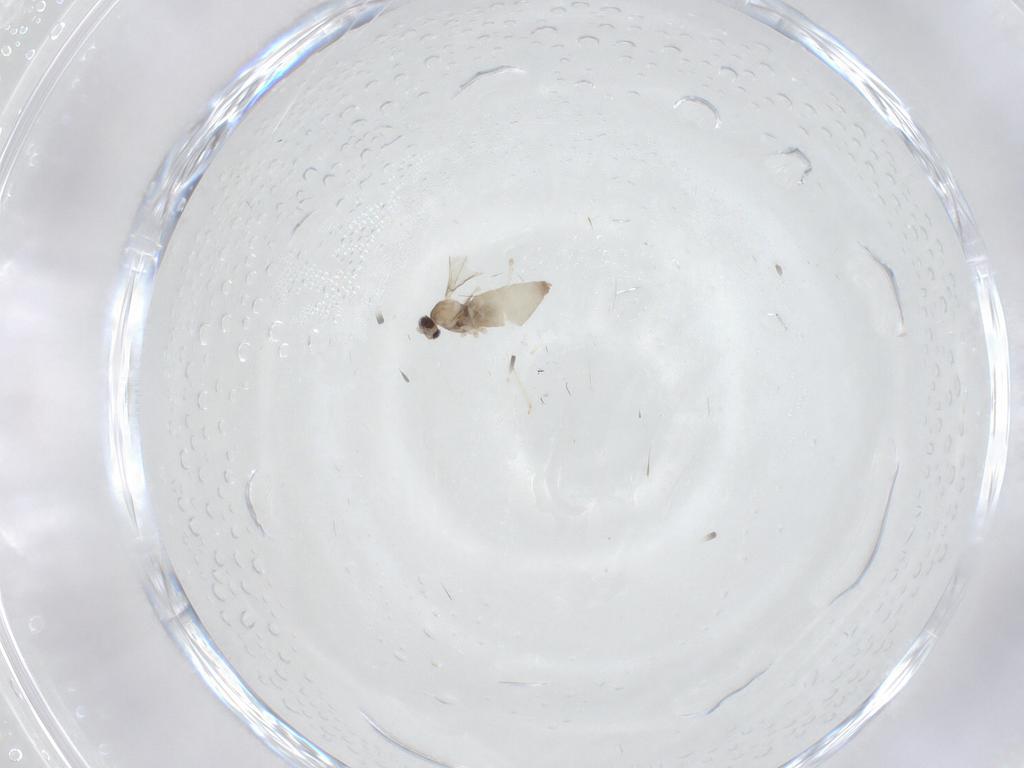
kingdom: Animalia
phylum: Arthropoda
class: Insecta
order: Diptera
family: Cecidomyiidae
